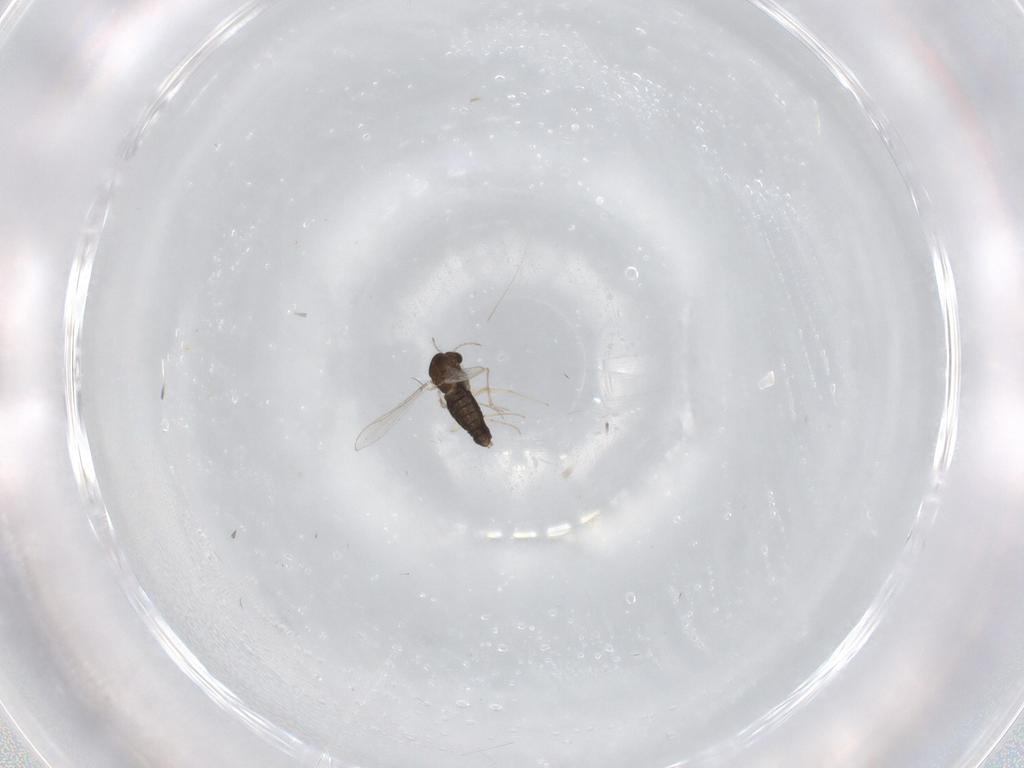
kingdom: Animalia
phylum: Arthropoda
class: Insecta
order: Diptera
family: Chironomidae
